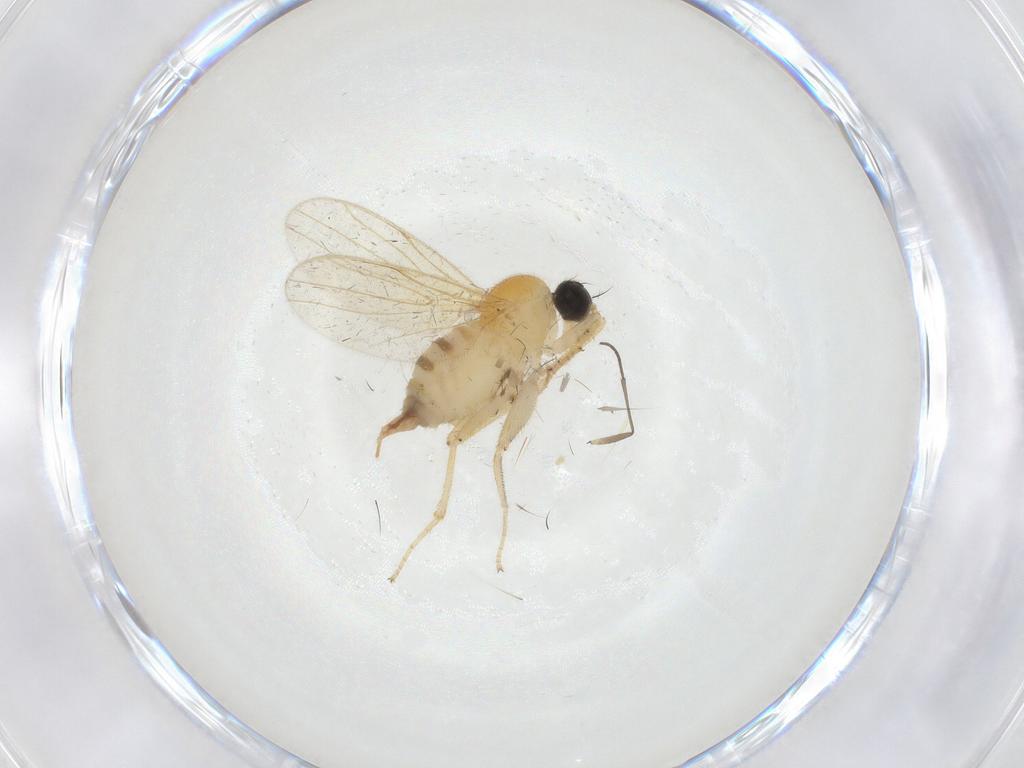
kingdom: Animalia
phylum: Arthropoda
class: Insecta
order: Diptera
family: Hybotidae
